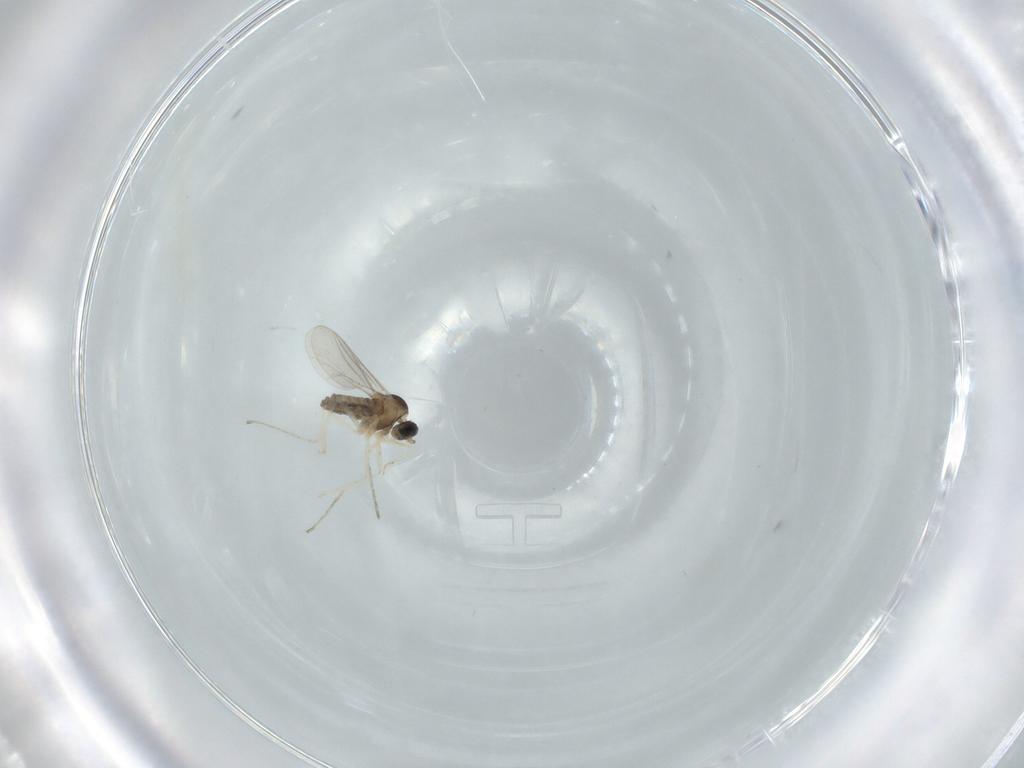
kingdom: Animalia
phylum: Arthropoda
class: Insecta
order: Diptera
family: Cecidomyiidae
